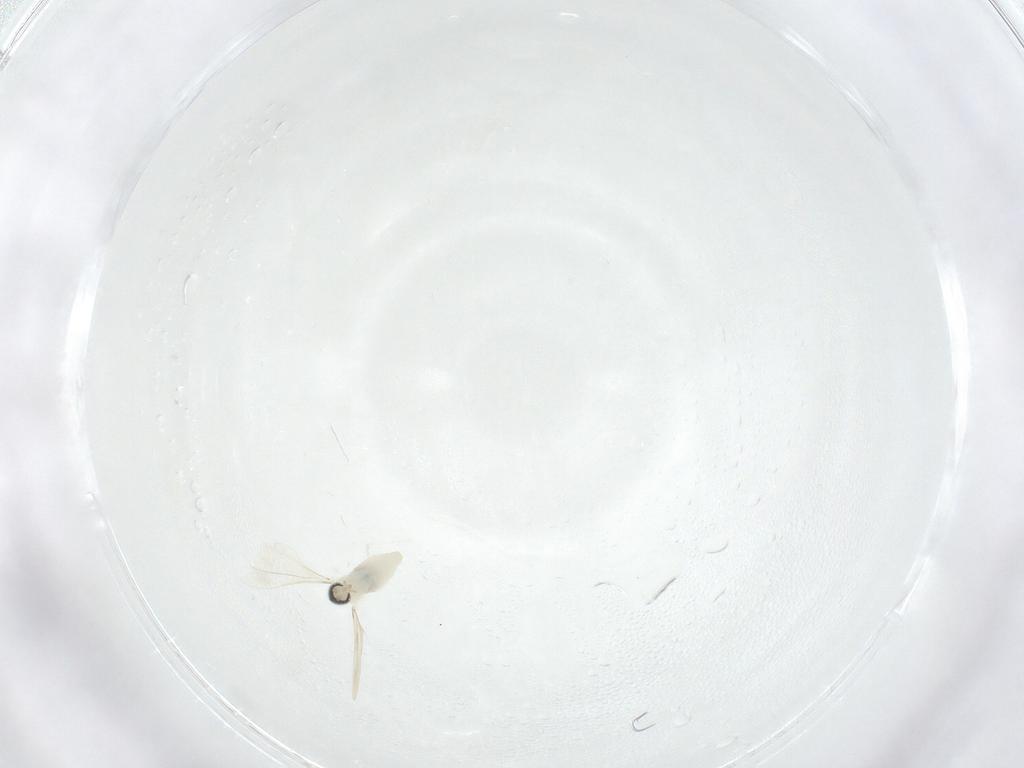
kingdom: Animalia
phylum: Arthropoda
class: Insecta
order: Diptera
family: Cecidomyiidae
